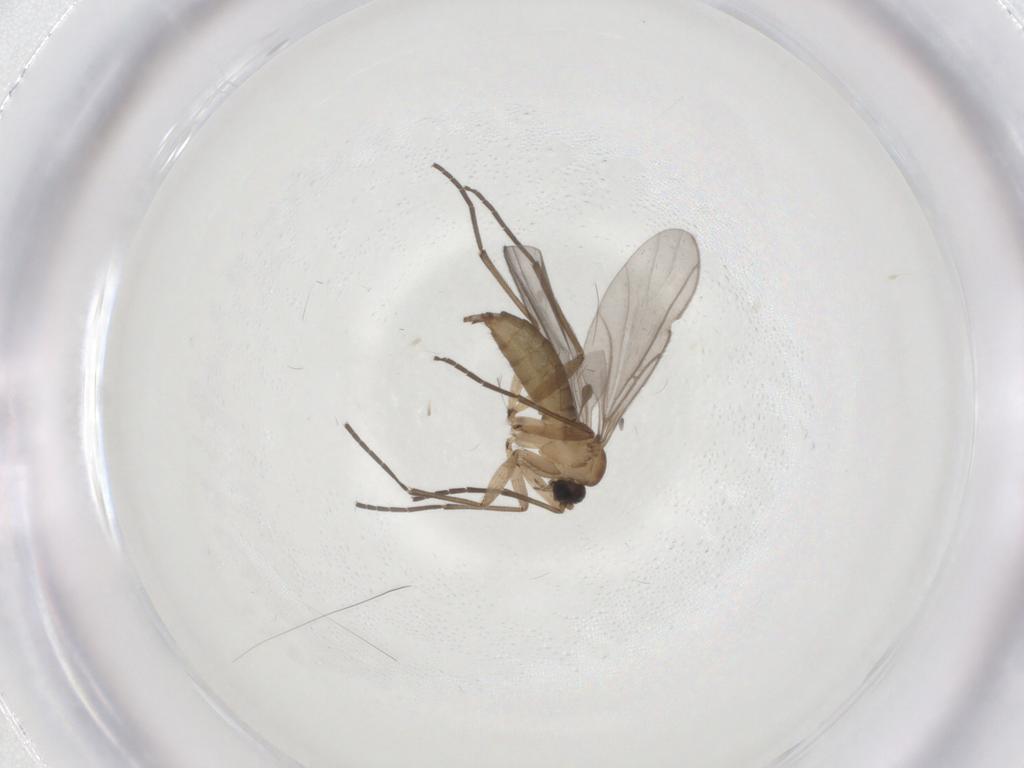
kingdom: Animalia
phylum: Arthropoda
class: Insecta
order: Diptera
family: Sciaridae
